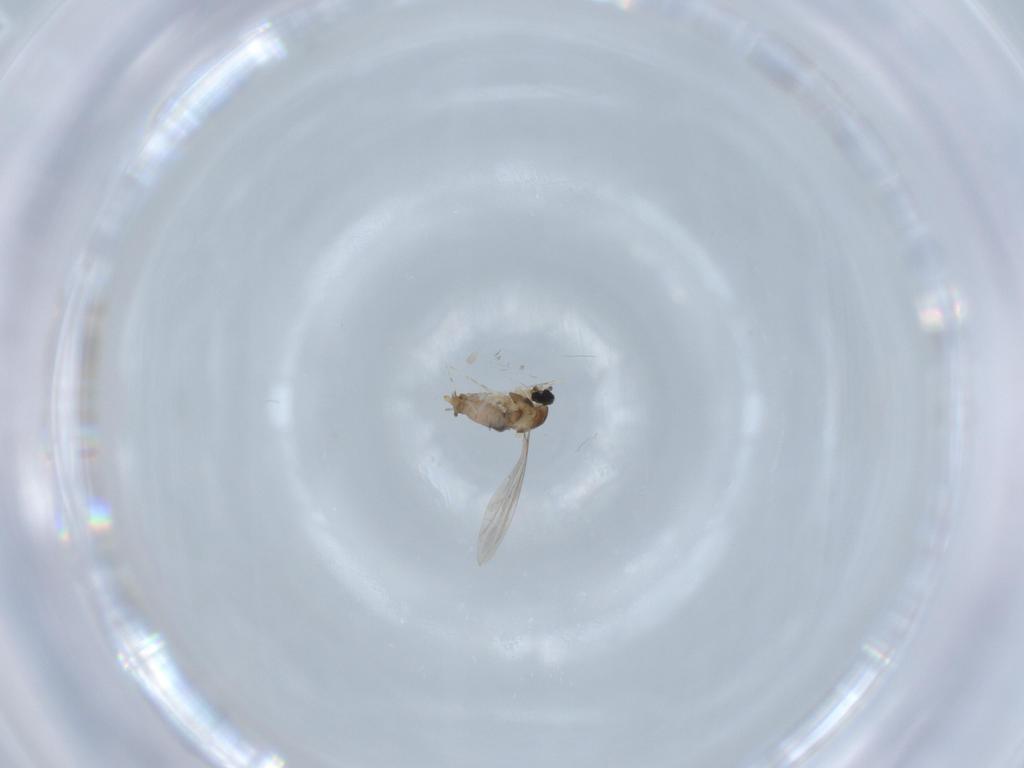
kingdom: Animalia
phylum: Arthropoda
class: Insecta
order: Diptera
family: Cecidomyiidae
